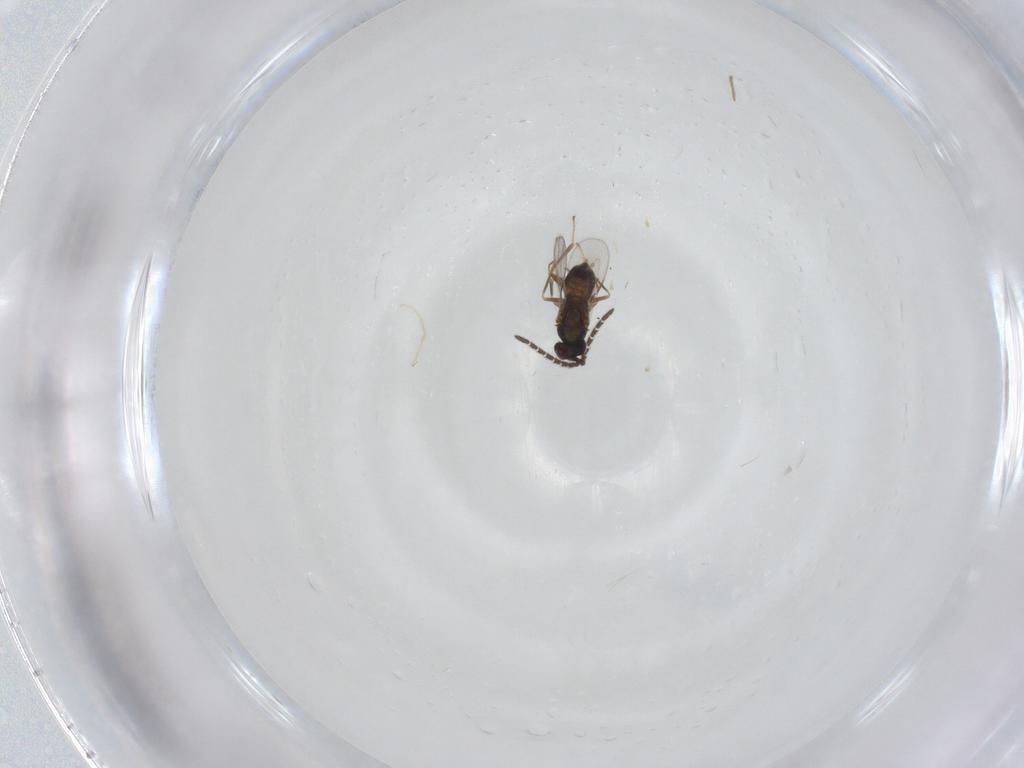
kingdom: Animalia
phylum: Arthropoda
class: Insecta
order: Hymenoptera
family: Encyrtidae
